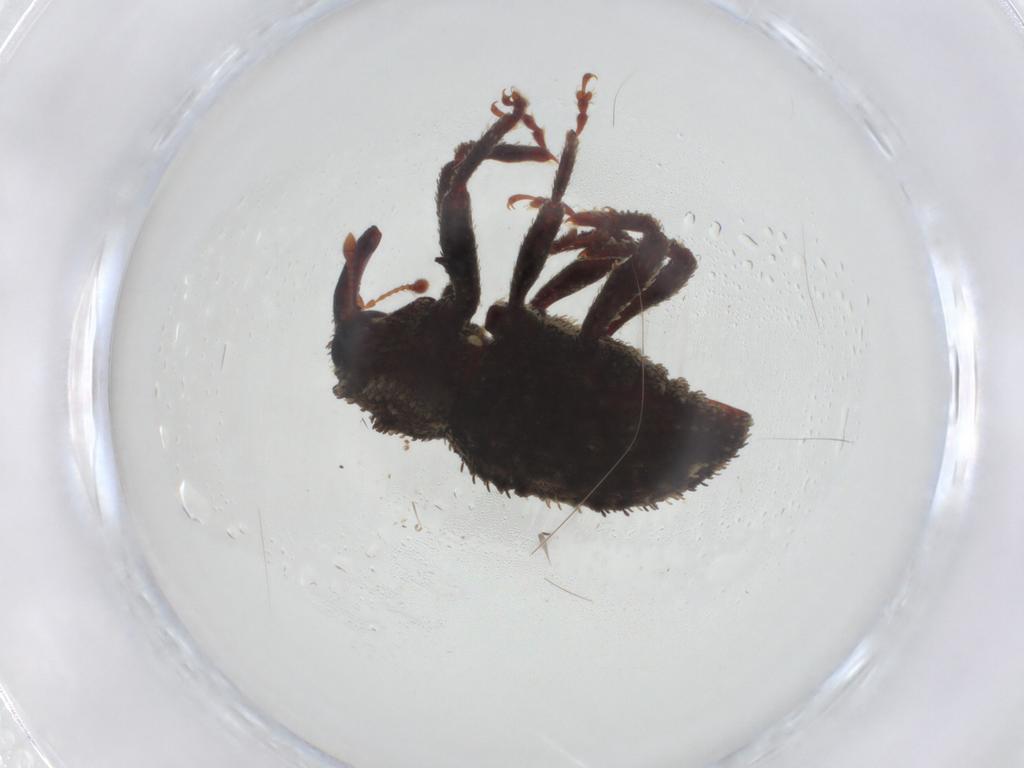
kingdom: Animalia
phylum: Arthropoda
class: Insecta
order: Coleoptera
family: Curculionidae
